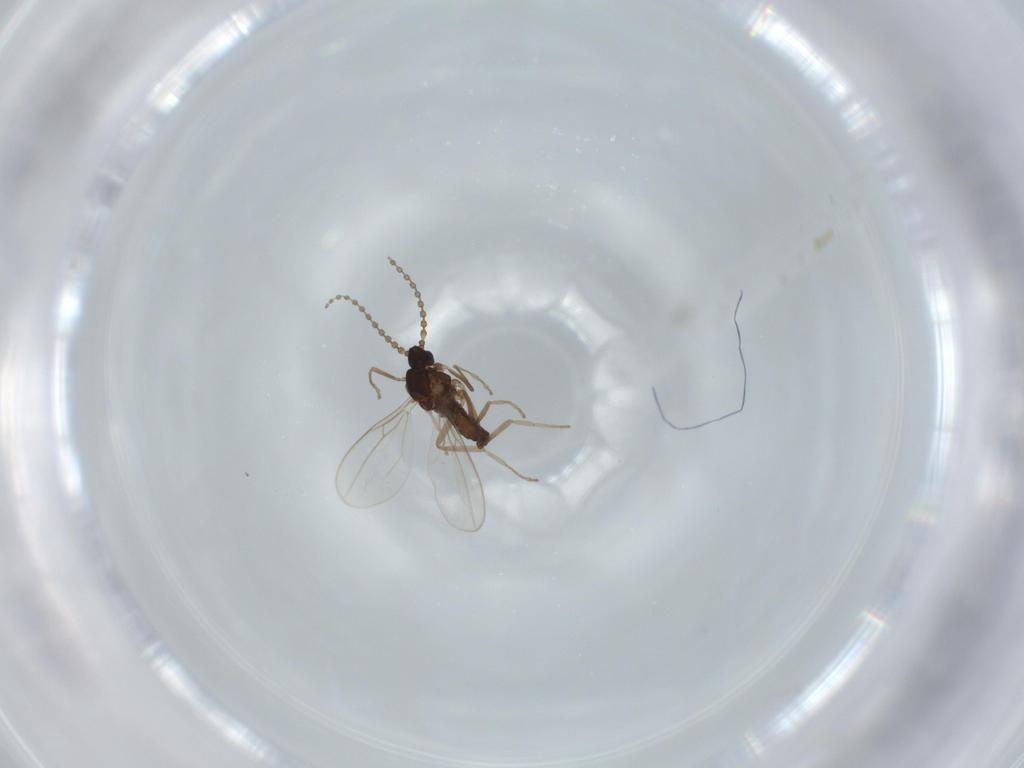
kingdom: Animalia
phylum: Arthropoda
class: Insecta
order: Diptera
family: Cecidomyiidae
